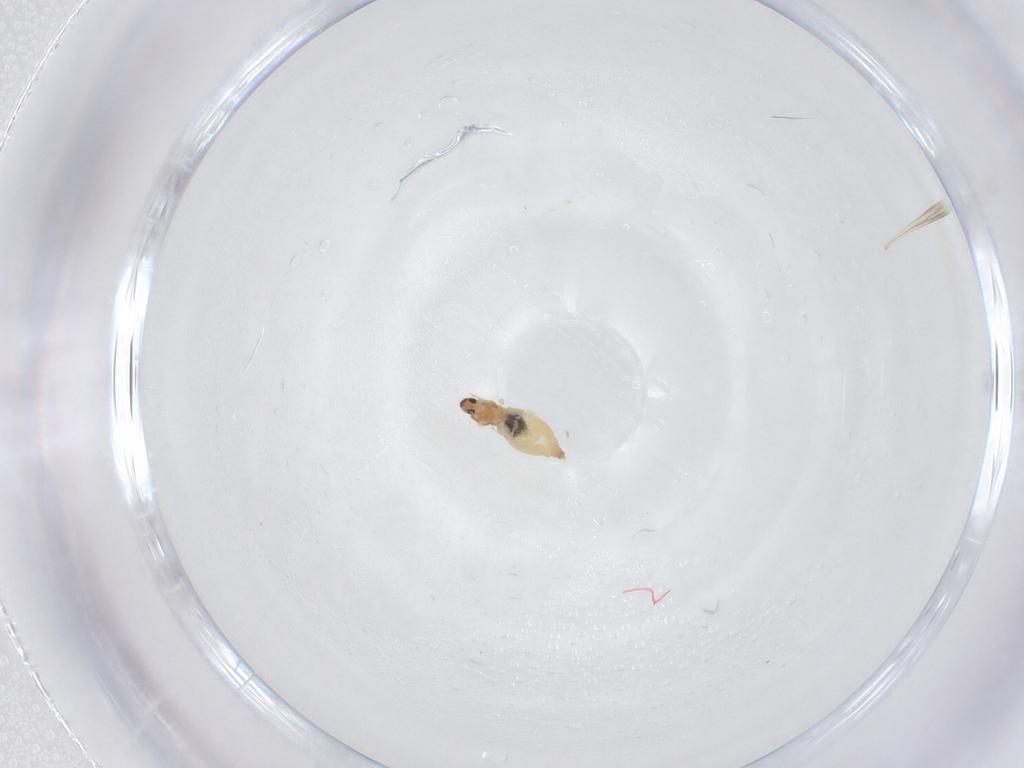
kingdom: Animalia
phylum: Arthropoda
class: Insecta
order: Diptera
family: Cecidomyiidae
